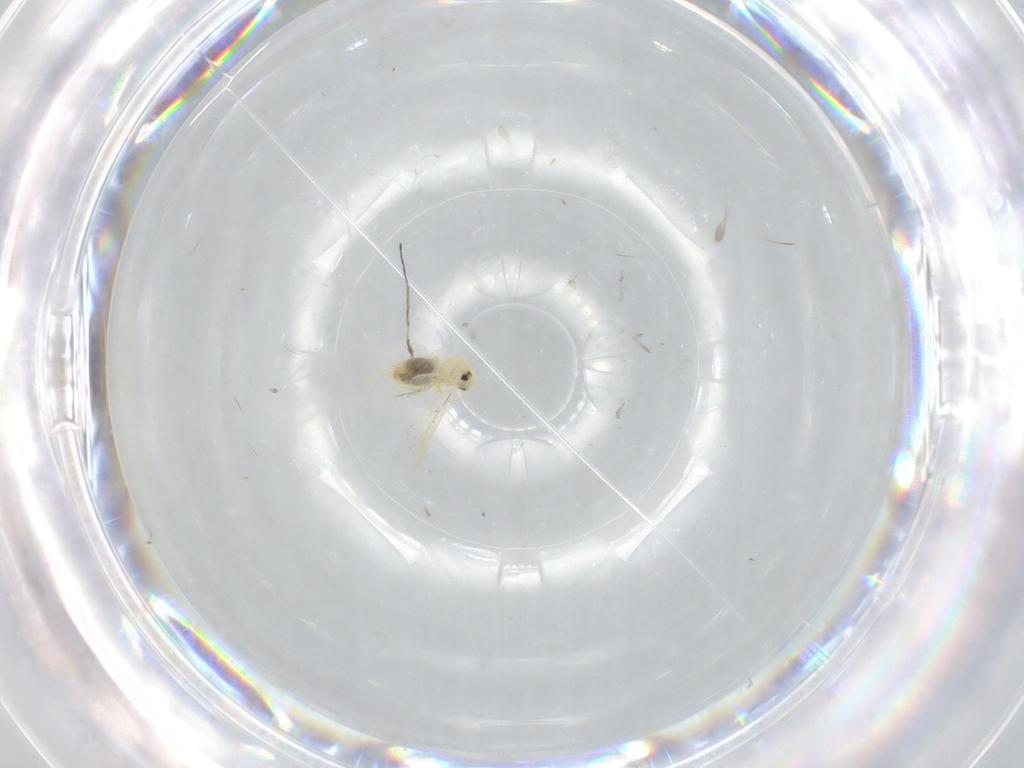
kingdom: Animalia
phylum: Arthropoda
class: Insecta
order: Hemiptera
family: Aleyrodidae
